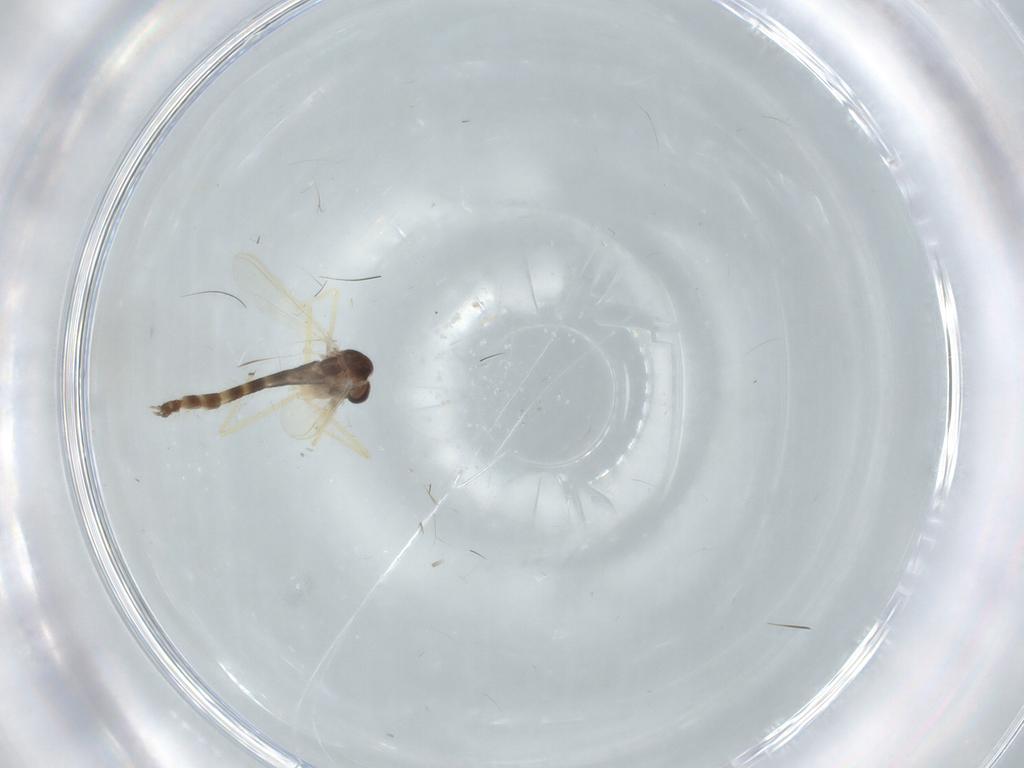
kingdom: Animalia
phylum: Arthropoda
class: Insecta
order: Diptera
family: Chironomidae
